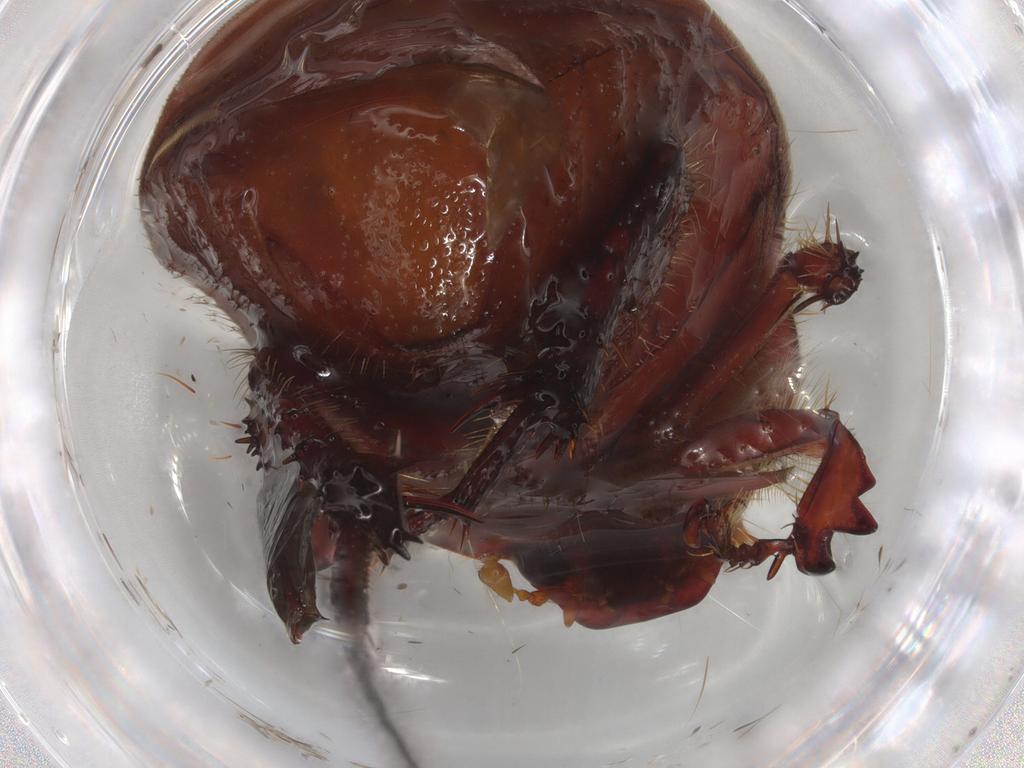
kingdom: Animalia
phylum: Arthropoda
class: Insecta
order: Coleoptera
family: Melolonthidae
